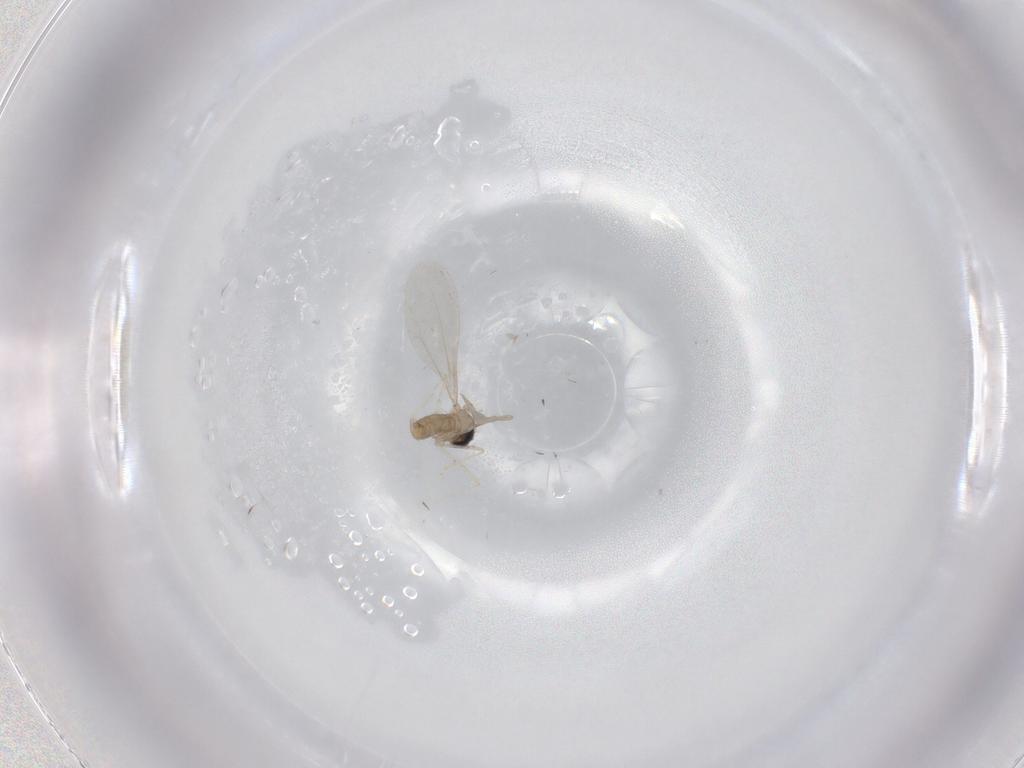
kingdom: Animalia
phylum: Arthropoda
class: Insecta
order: Diptera
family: Cecidomyiidae
